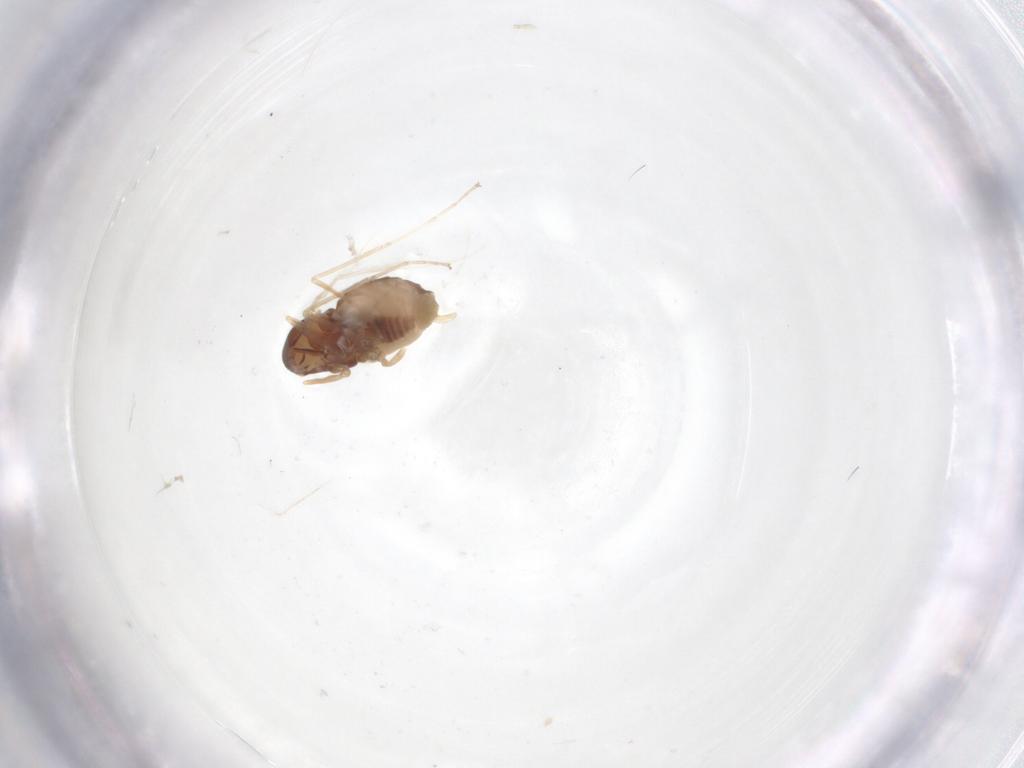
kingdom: Animalia
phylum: Arthropoda
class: Insecta
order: Diptera
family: Cecidomyiidae
